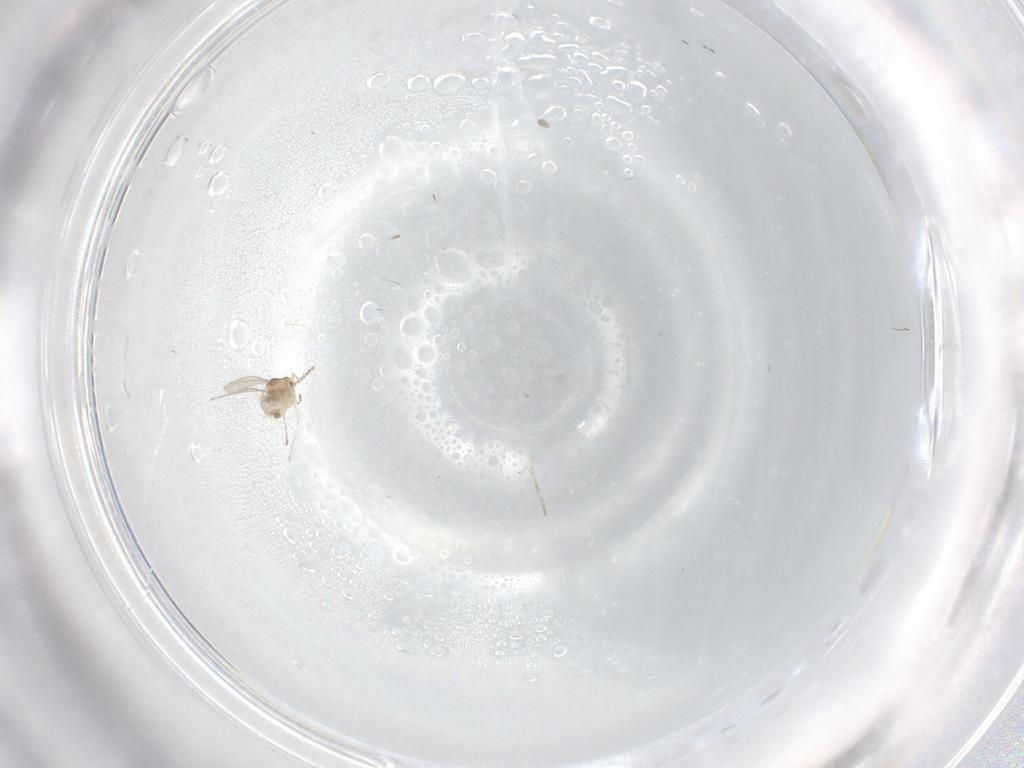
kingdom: Animalia
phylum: Arthropoda
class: Insecta
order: Diptera
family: Cecidomyiidae
